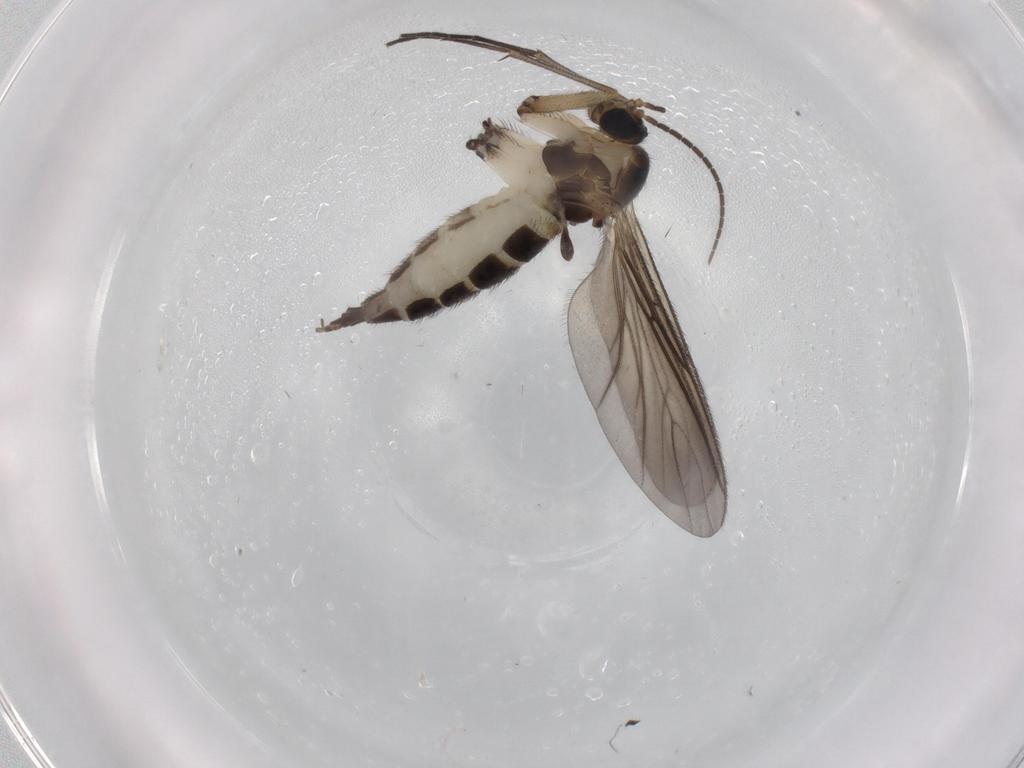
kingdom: Animalia
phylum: Arthropoda
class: Insecta
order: Diptera
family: Sciaridae
